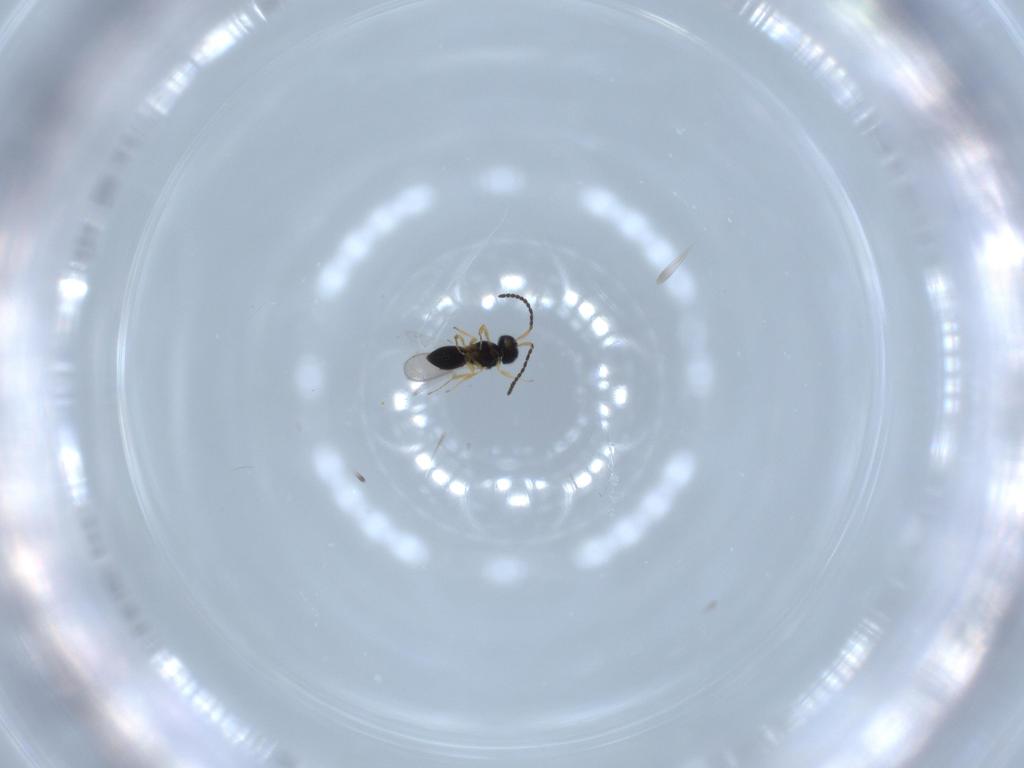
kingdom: Animalia
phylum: Arthropoda
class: Insecta
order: Hymenoptera
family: Scelionidae
